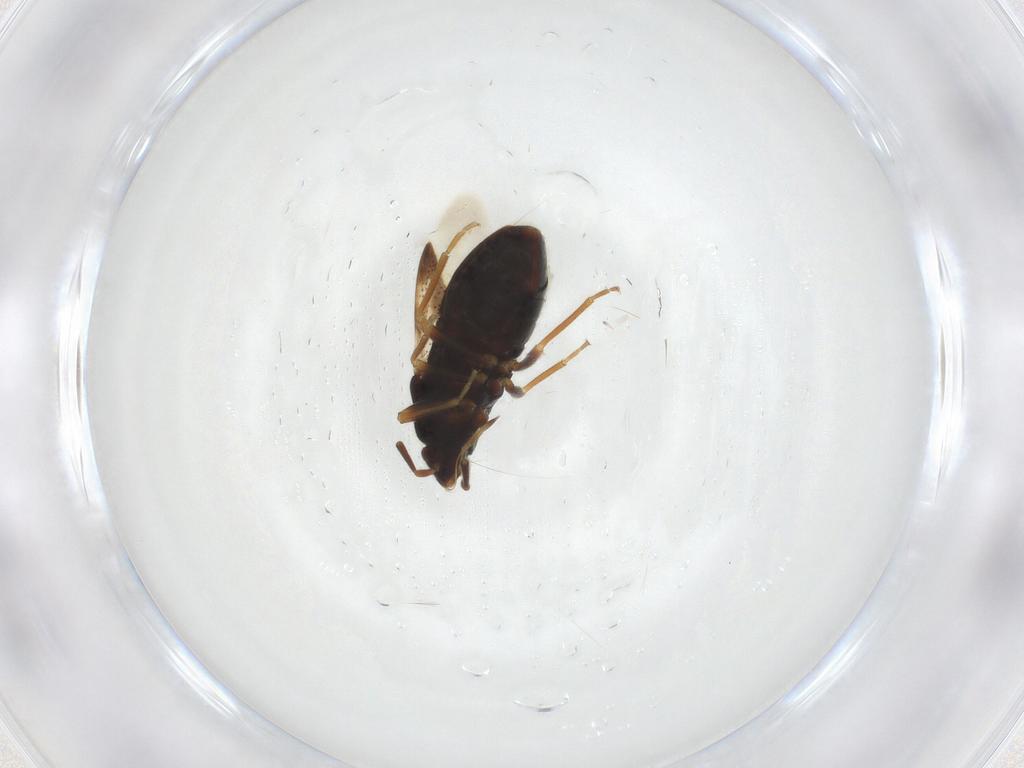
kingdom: Animalia
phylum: Arthropoda
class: Insecta
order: Hemiptera
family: Rhyparochromidae
